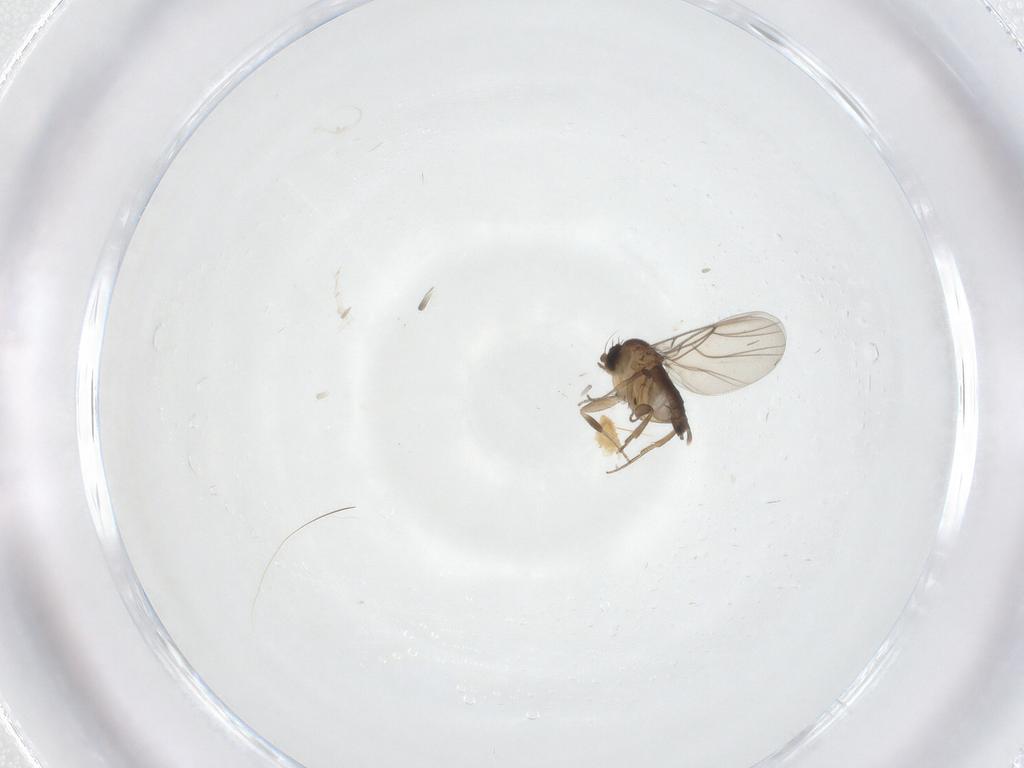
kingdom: Animalia
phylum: Arthropoda
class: Insecta
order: Diptera
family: Phoridae
